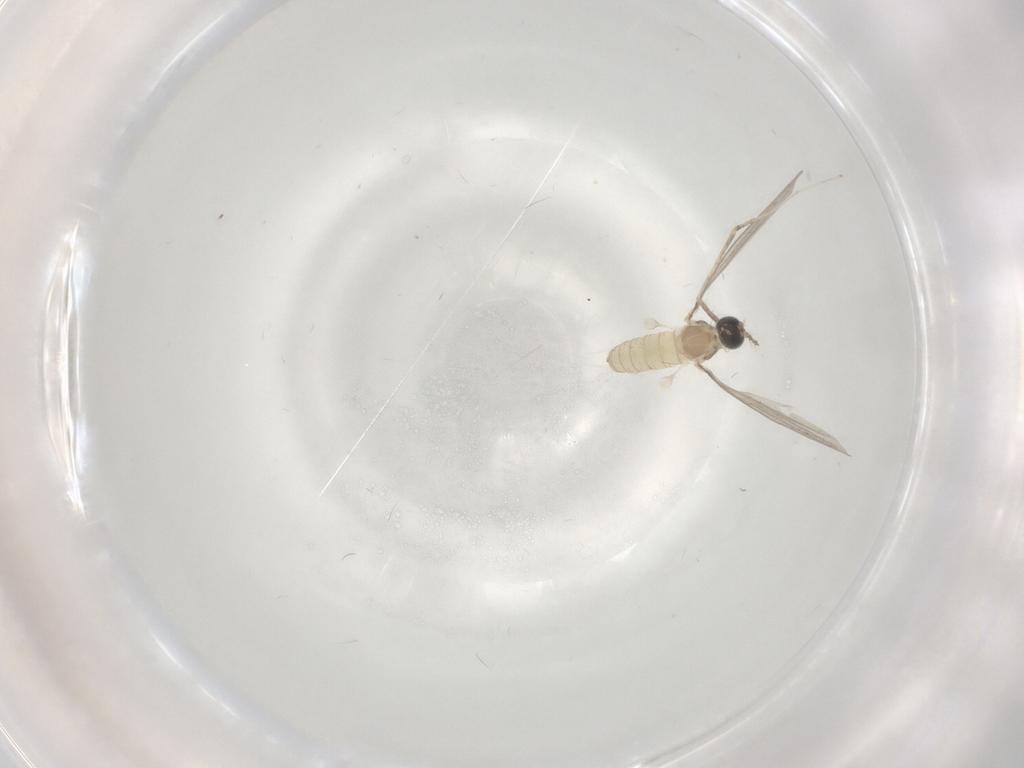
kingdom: Animalia
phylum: Arthropoda
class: Insecta
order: Diptera
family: Cecidomyiidae
